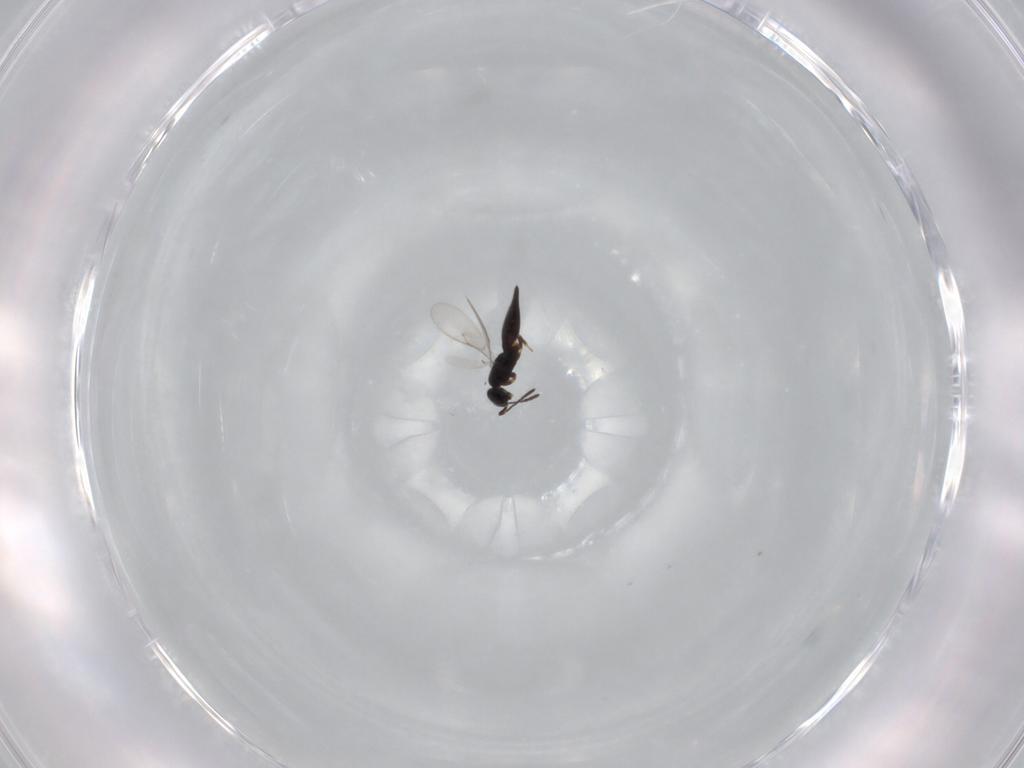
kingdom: Animalia
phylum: Arthropoda
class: Insecta
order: Hymenoptera
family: Scelionidae
